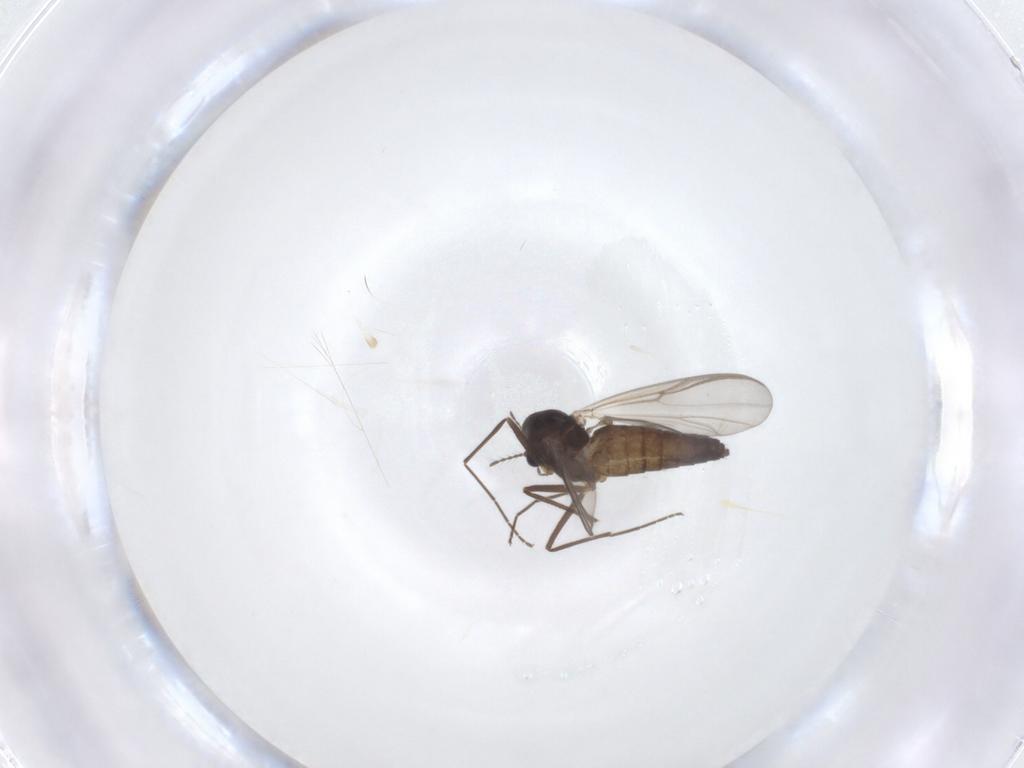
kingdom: Animalia
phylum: Arthropoda
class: Insecta
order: Diptera
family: Chironomidae
